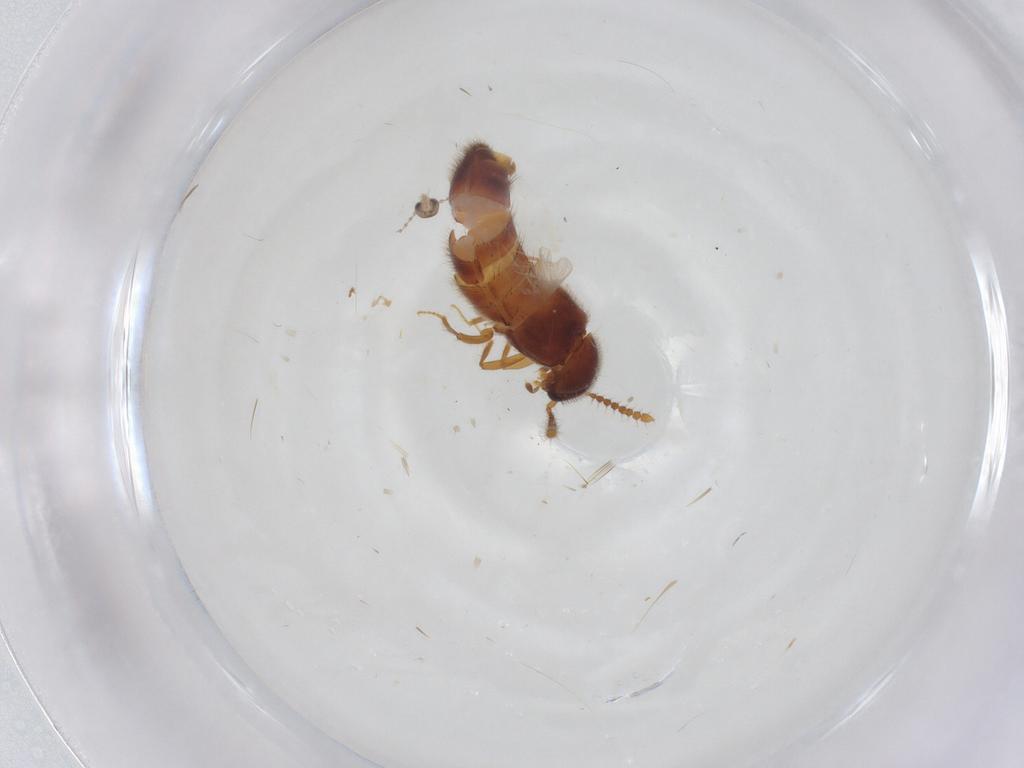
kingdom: Animalia
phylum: Arthropoda
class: Insecta
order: Coleoptera
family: Staphylinidae
